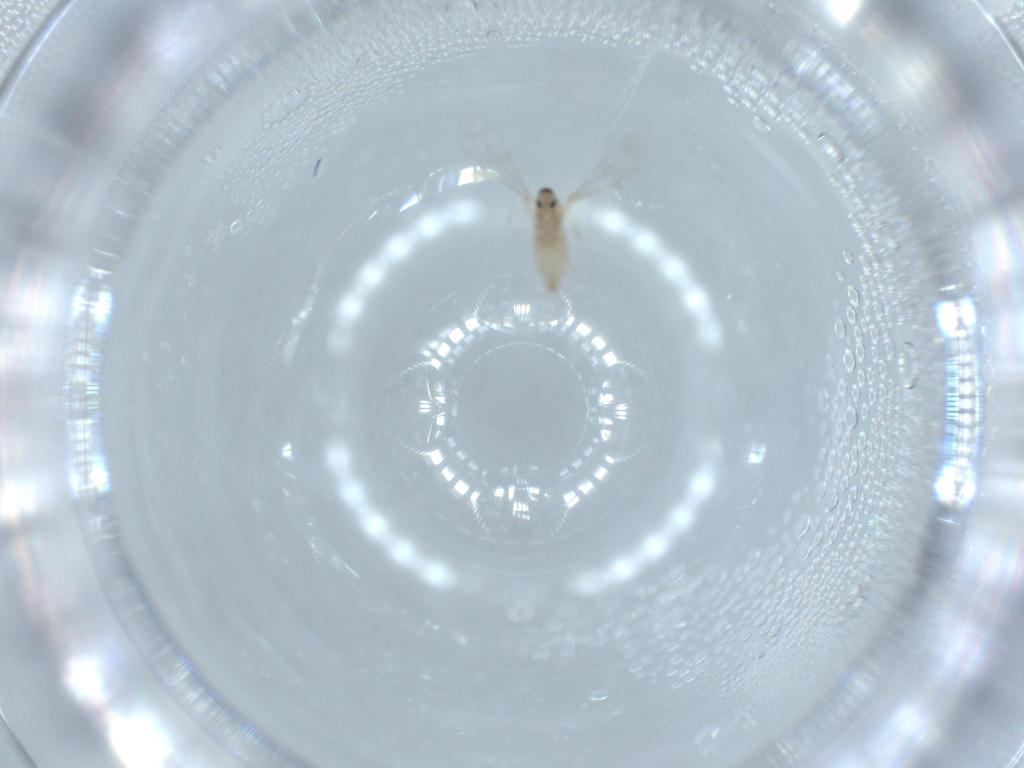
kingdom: Animalia
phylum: Arthropoda
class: Insecta
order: Diptera
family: Cecidomyiidae
